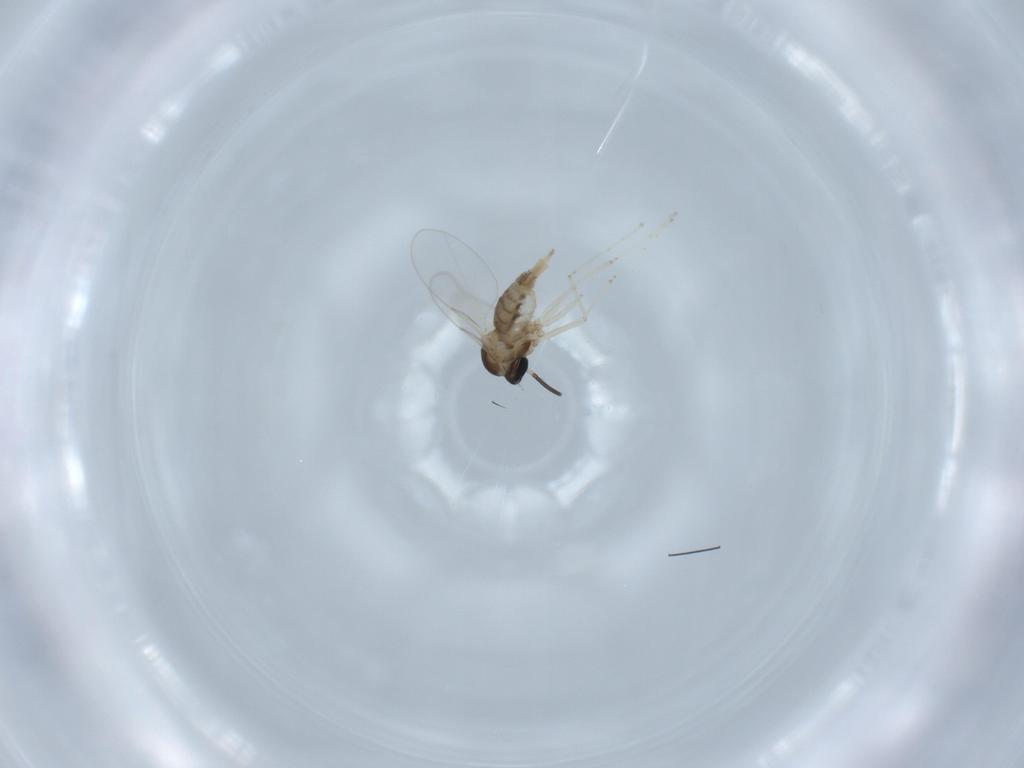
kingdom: Animalia
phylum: Arthropoda
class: Insecta
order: Diptera
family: Cecidomyiidae
